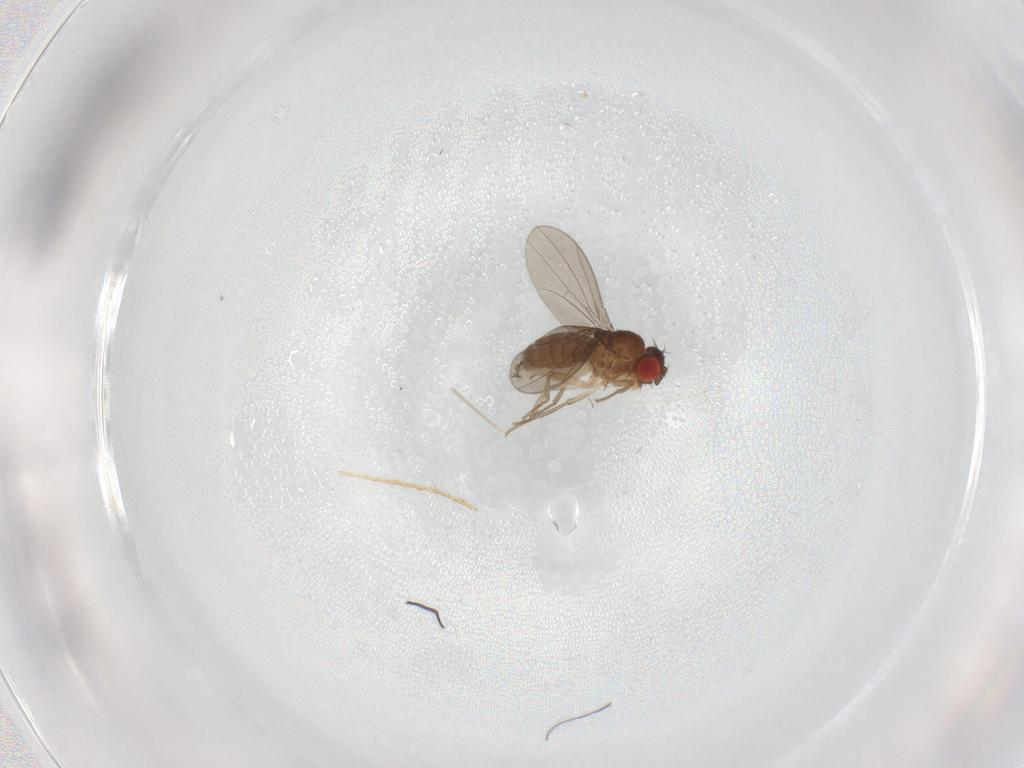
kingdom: Animalia
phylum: Arthropoda
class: Insecta
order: Diptera
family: Drosophilidae
